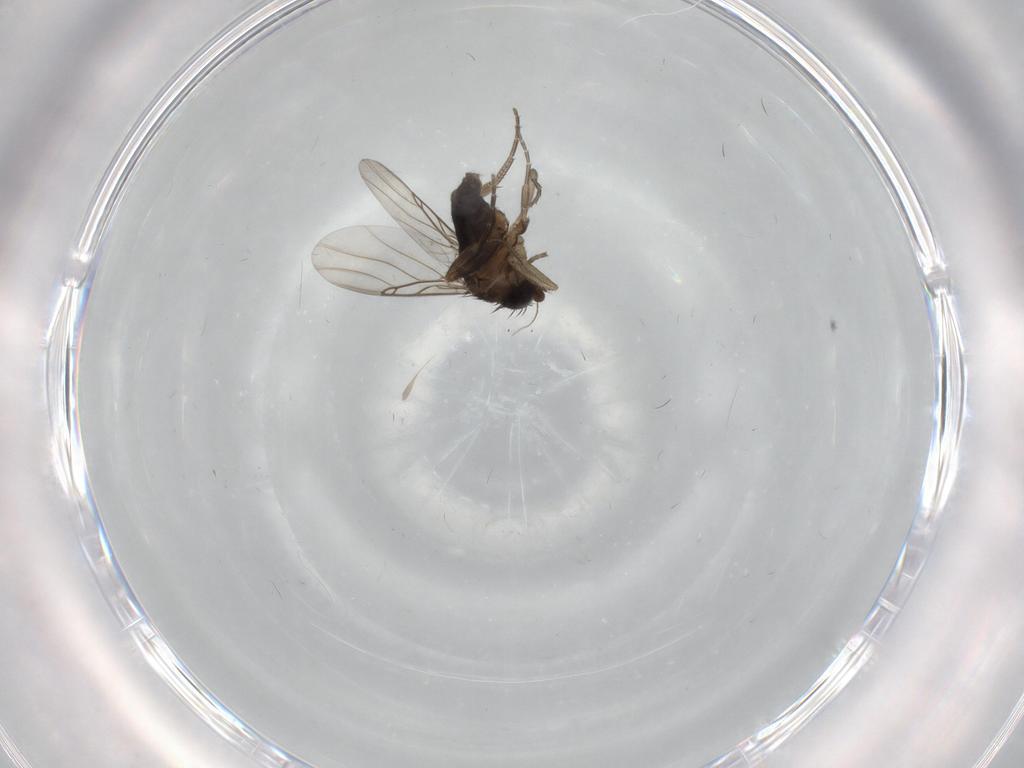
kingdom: Animalia
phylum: Arthropoda
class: Insecta
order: Diptera
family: Phoridae
